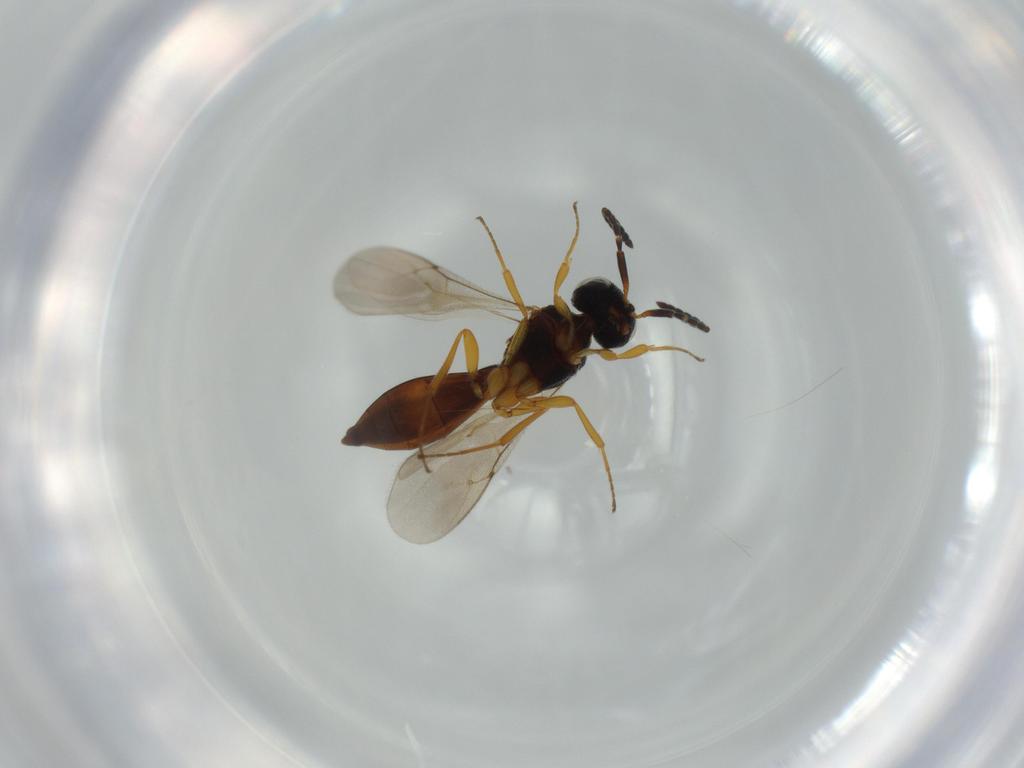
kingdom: Animalia
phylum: Arthropoda
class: Insecta
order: Hymenoptera
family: Scelionidae
